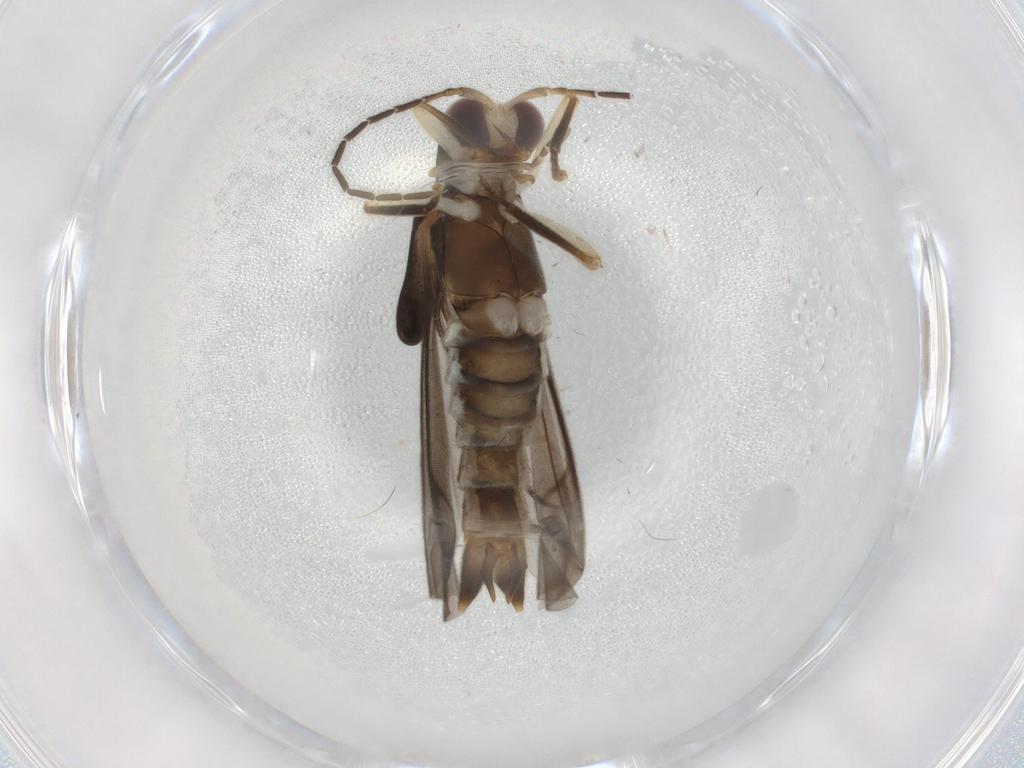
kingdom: Animalia
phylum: Arthropoda
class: Insecta
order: Coleoptera
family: Cantharidae
